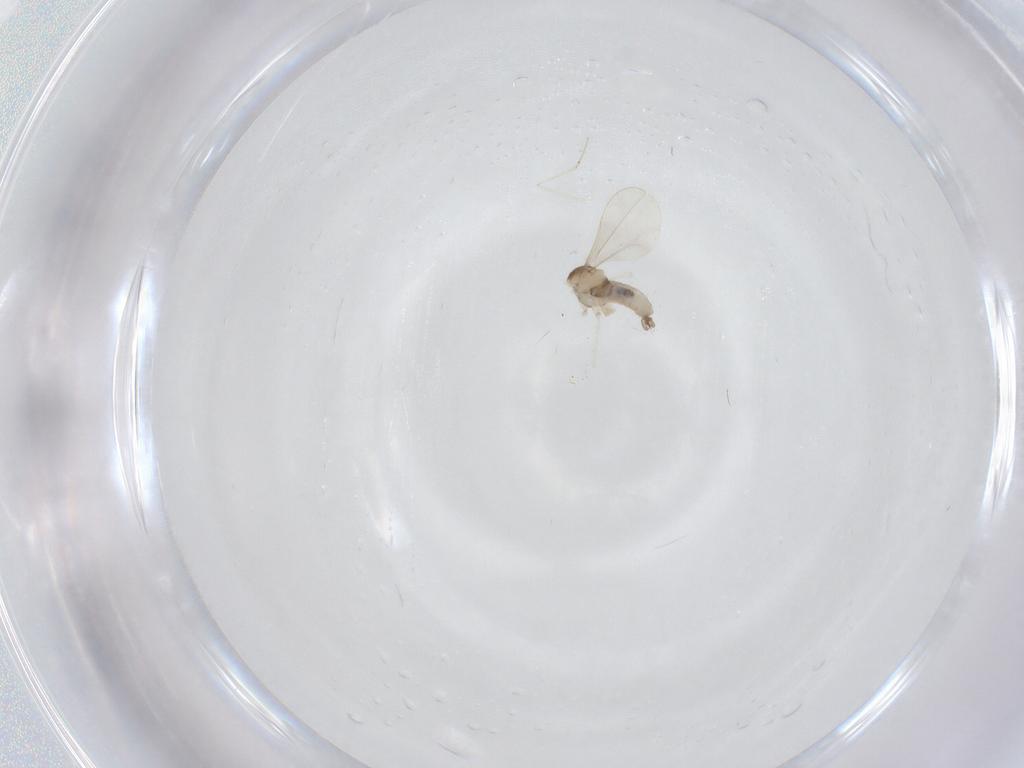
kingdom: Animalia
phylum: Arthropoda
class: Insecta
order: Diptera
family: Cecidomyiidae
